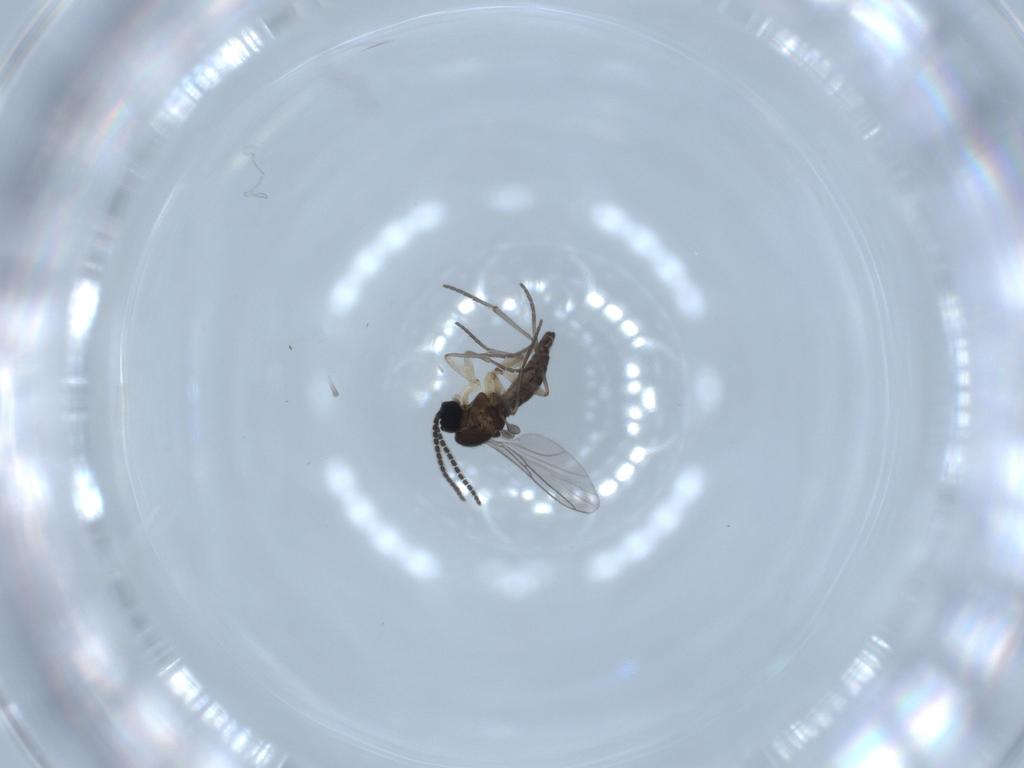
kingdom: Animalia
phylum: Arthropoda
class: Insecta
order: Diptera
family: Sciaridae
